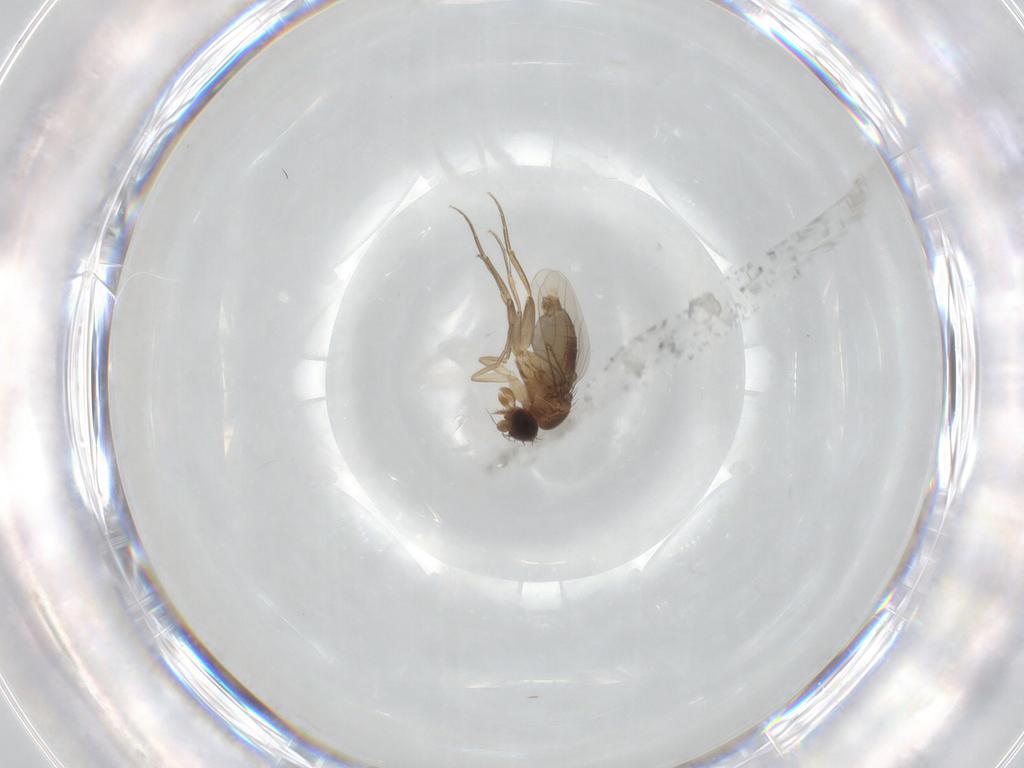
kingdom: Animalia
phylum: Arthropoda
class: Insecta
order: Diptera
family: Phoridae
